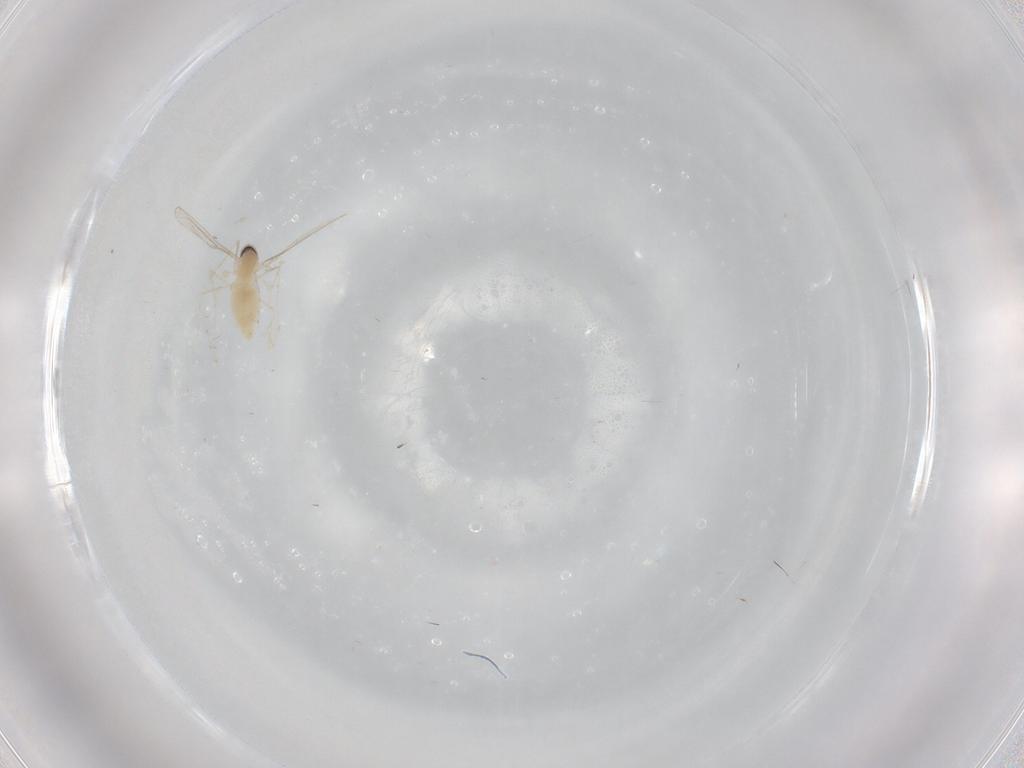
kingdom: Animalia
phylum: Arthropoda
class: Insecta
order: Diptera
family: Cecidomyiidae
